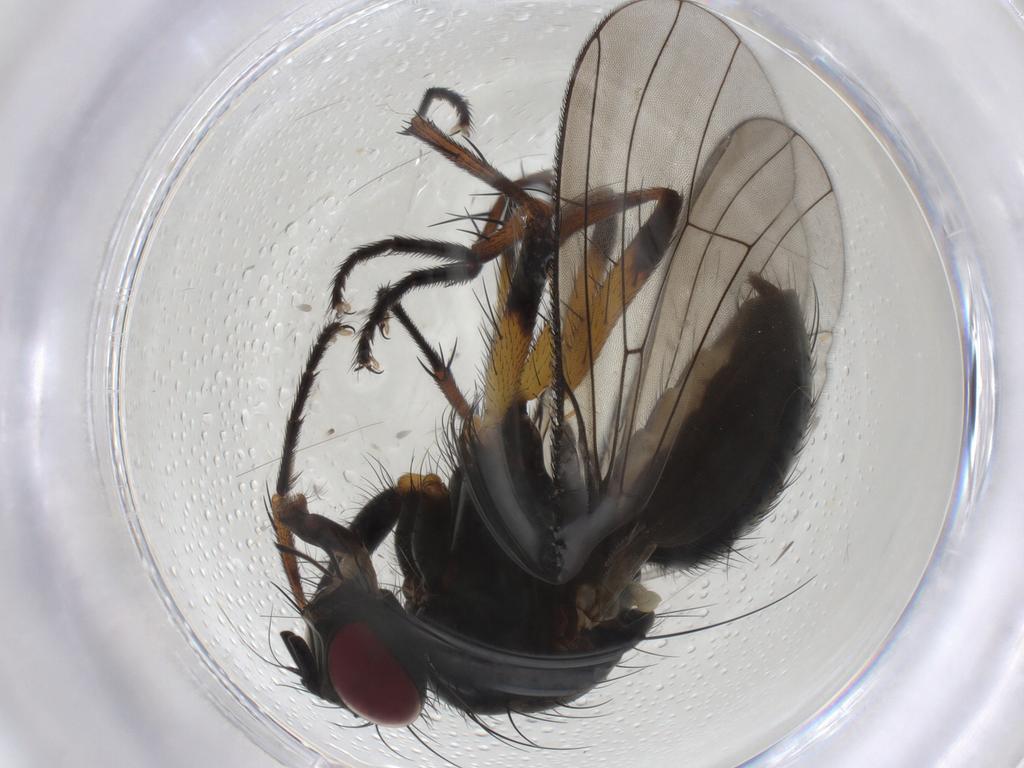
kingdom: Animalia
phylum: Arthropoda
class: Insecta
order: Diptera
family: Muscidae
